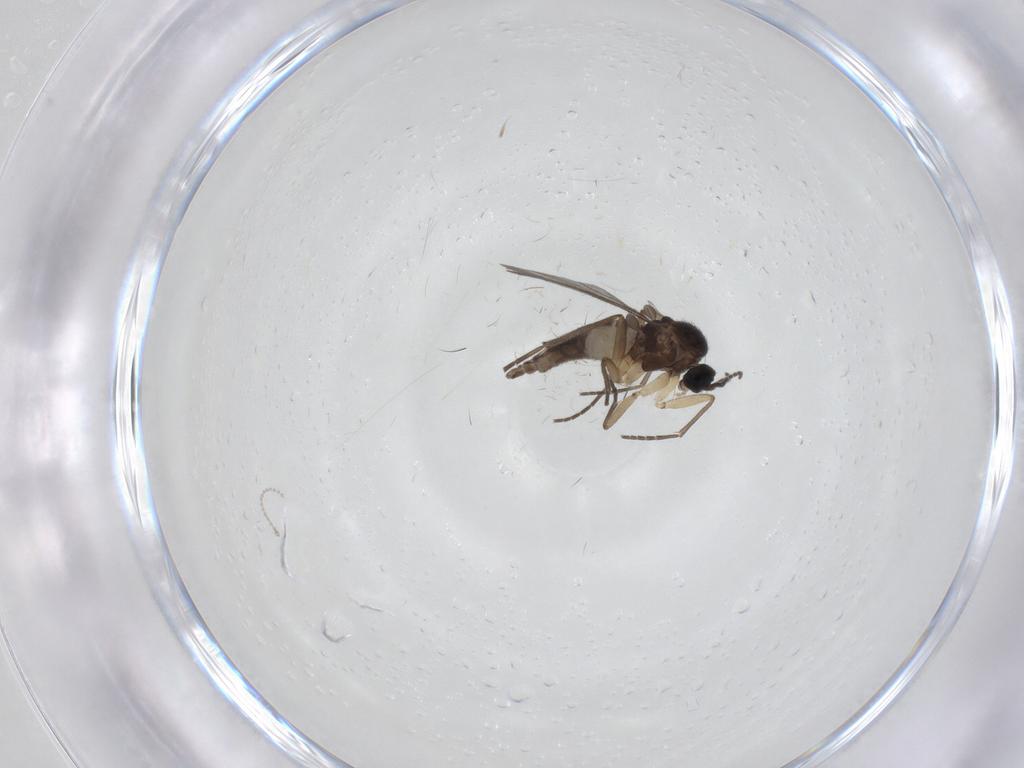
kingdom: Animalia
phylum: Arthropoda
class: Insecta
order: Diptera
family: Sciaridae
